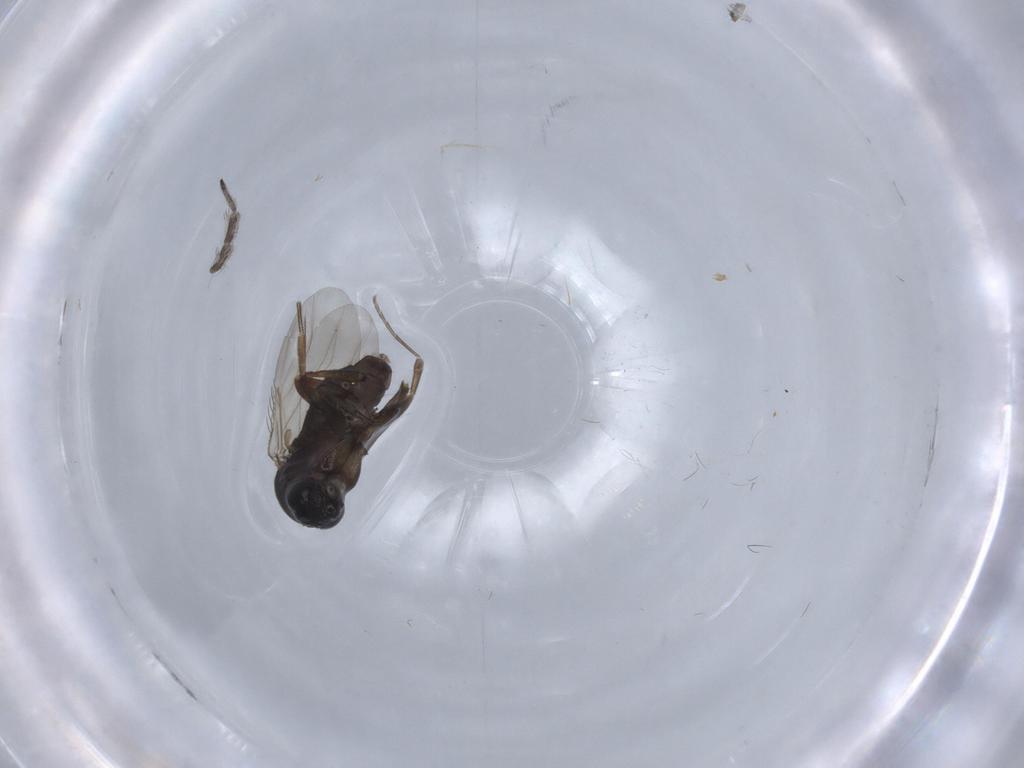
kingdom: Animalia
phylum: Arthropoda
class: Insecta
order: Diptera
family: Phoridae
